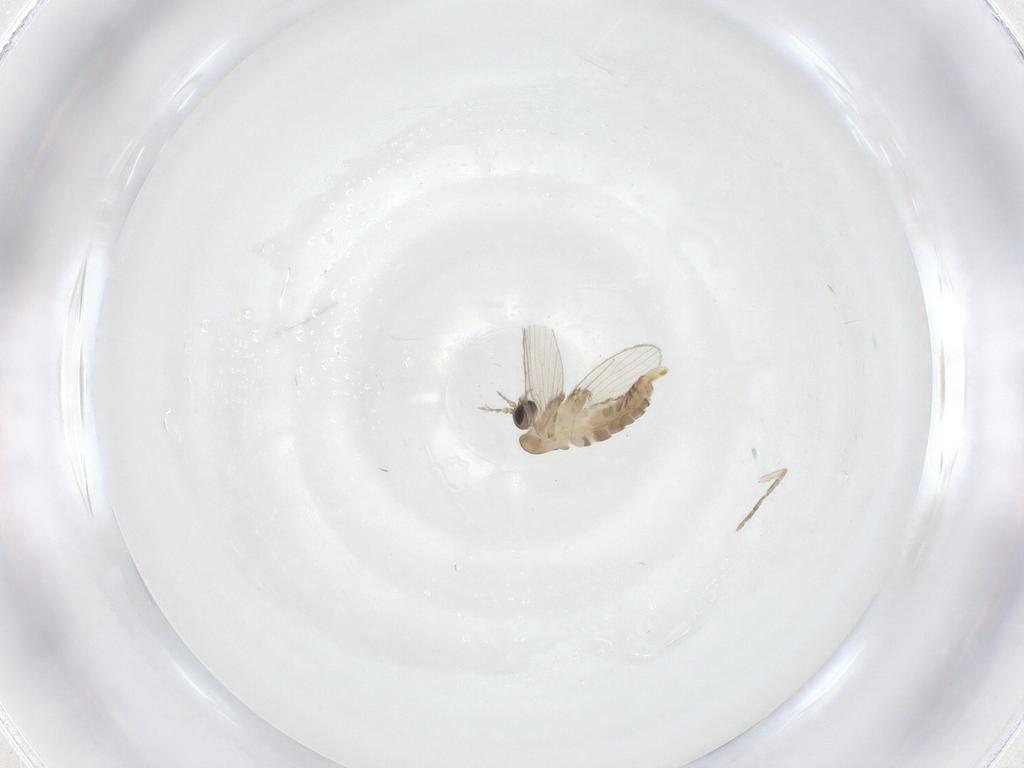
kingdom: Animalia
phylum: Arthropoda
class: Insecta
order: Diptera
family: Psychodidae
